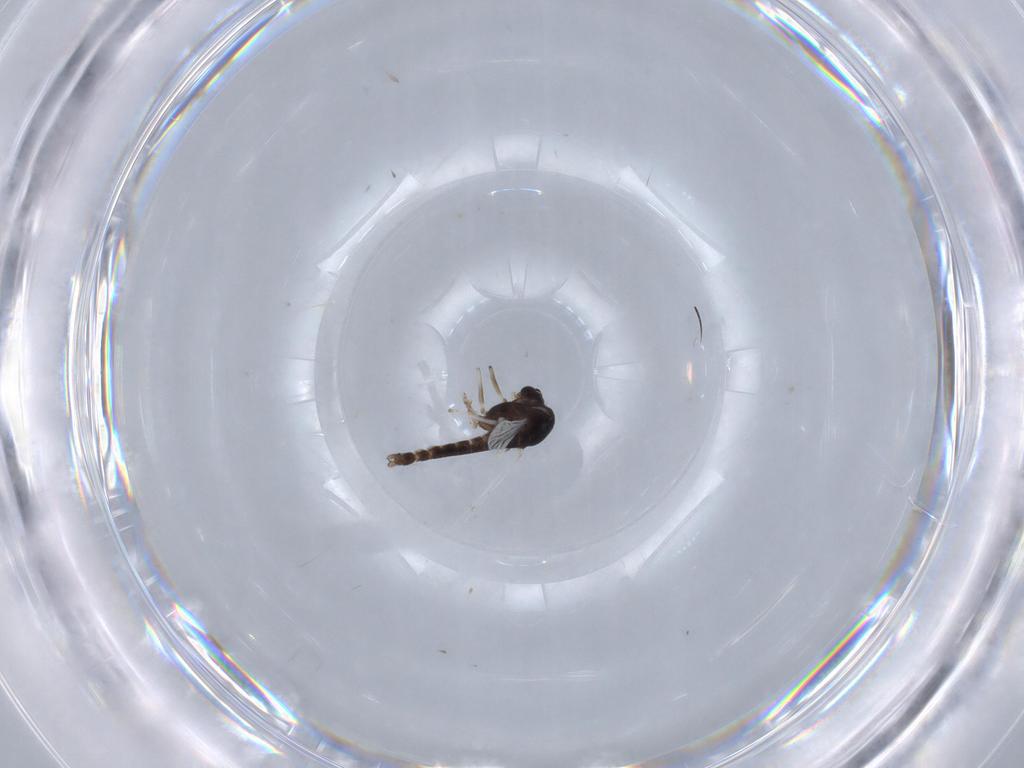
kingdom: Animalia
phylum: Arthropoda
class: Insecta
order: Diptera
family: Chironomidae
